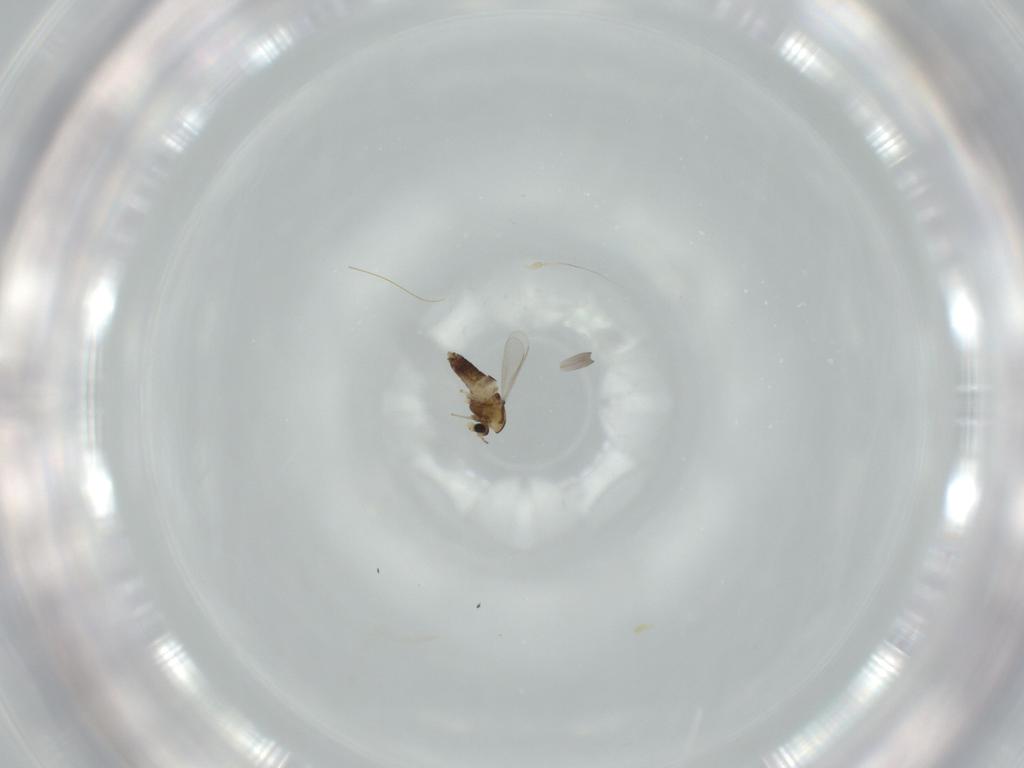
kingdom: Animalia
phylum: Arthropoda
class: Insecta
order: Diptera
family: Chironomidae
